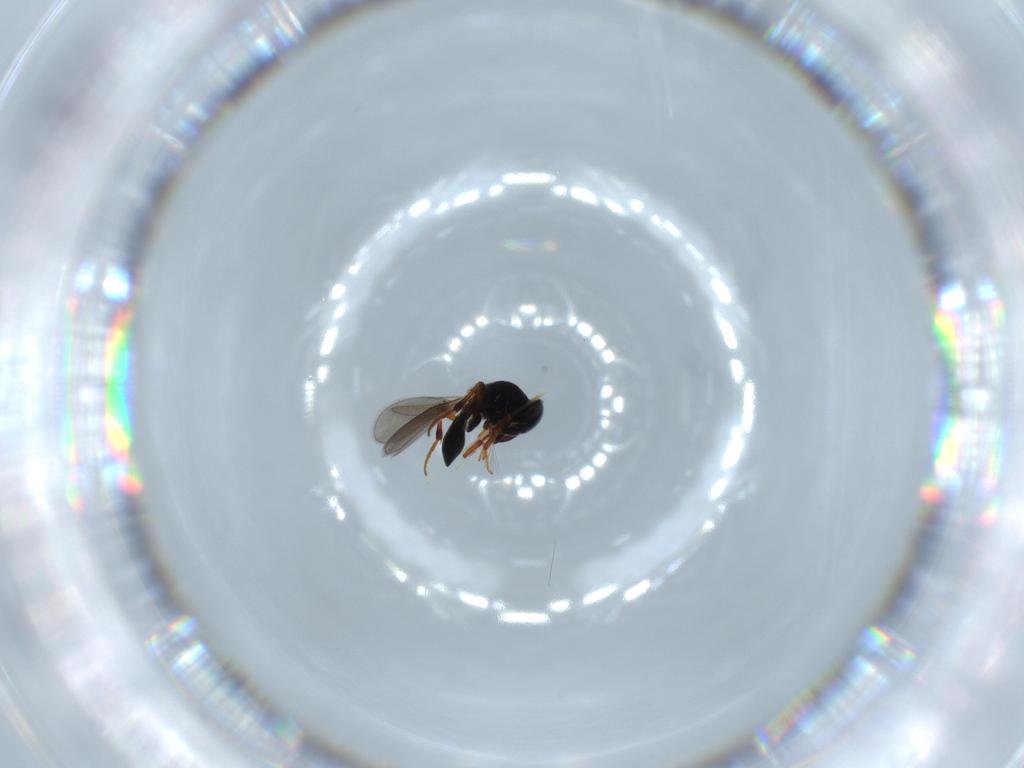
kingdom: Animalia
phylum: Arthropoda
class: Insecta
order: Hymenoptera
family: Platygastridae
